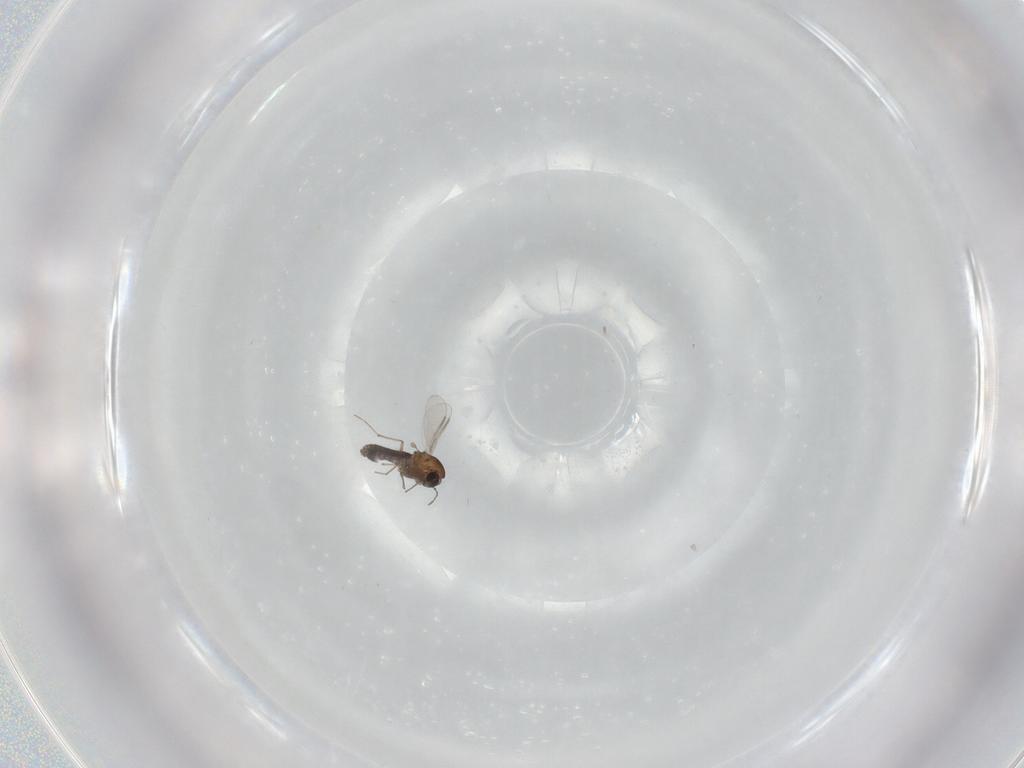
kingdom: Animalia
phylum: Arthropoda
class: Insecta
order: Diptera
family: Chironomidae
